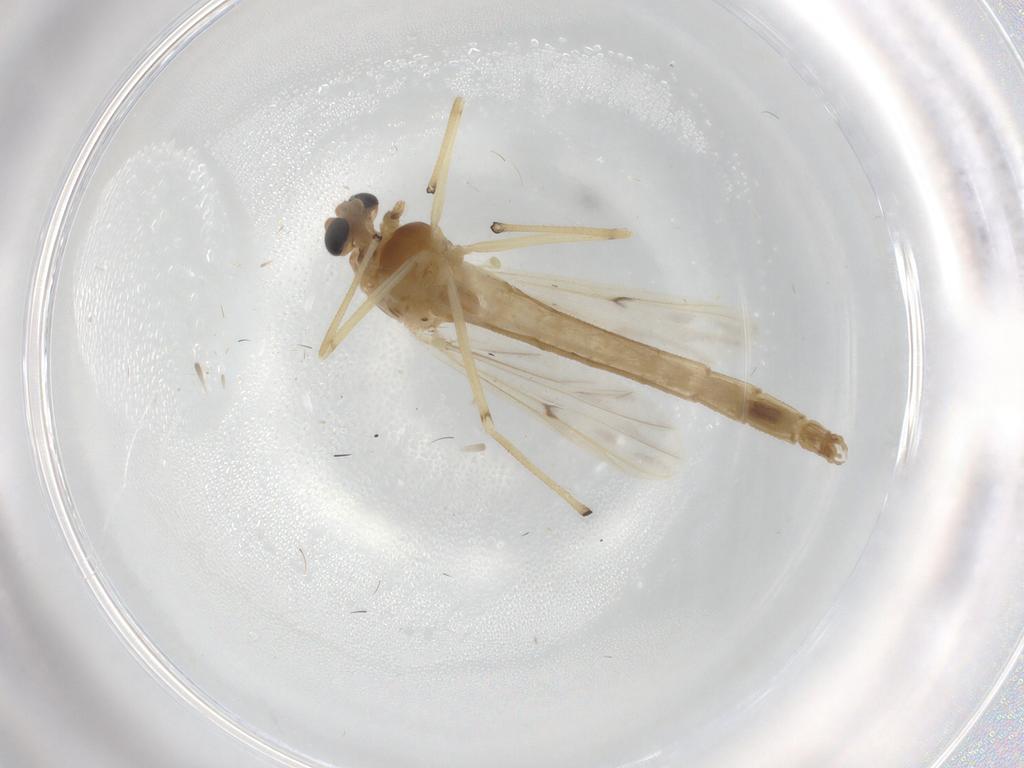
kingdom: Animalia
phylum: Arthropoda
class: Insecta
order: Diptera
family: Chironomidae
